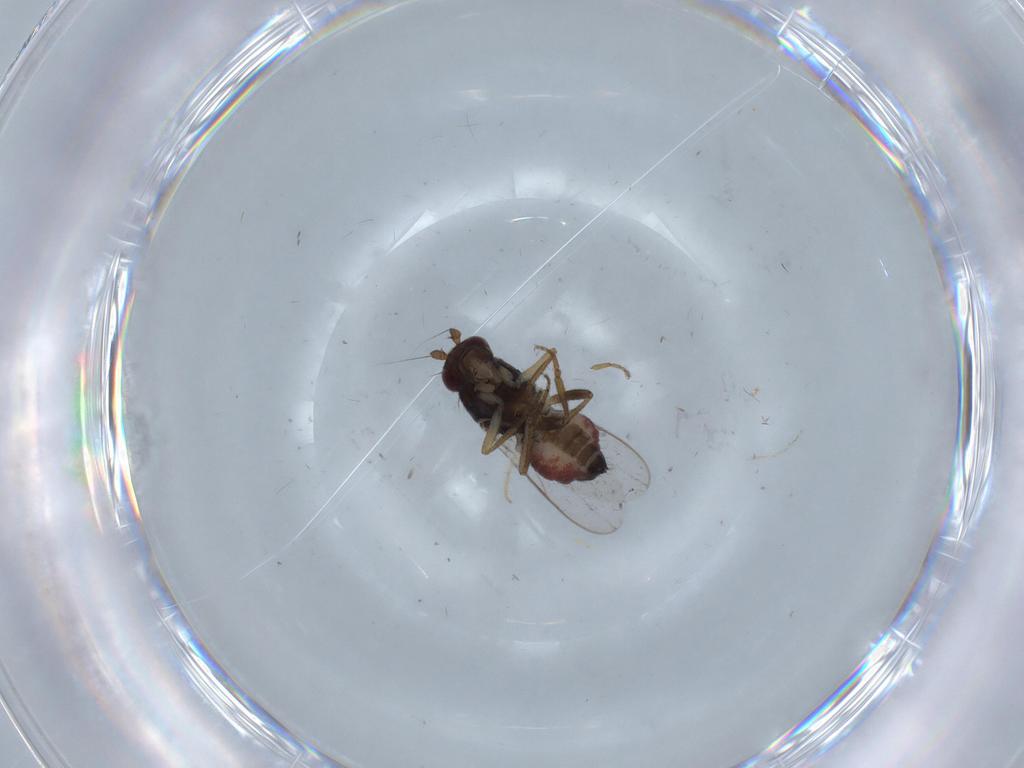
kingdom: Animalia
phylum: Arthropoda
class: Insecta
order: Diptera
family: Sphaeroceridae
